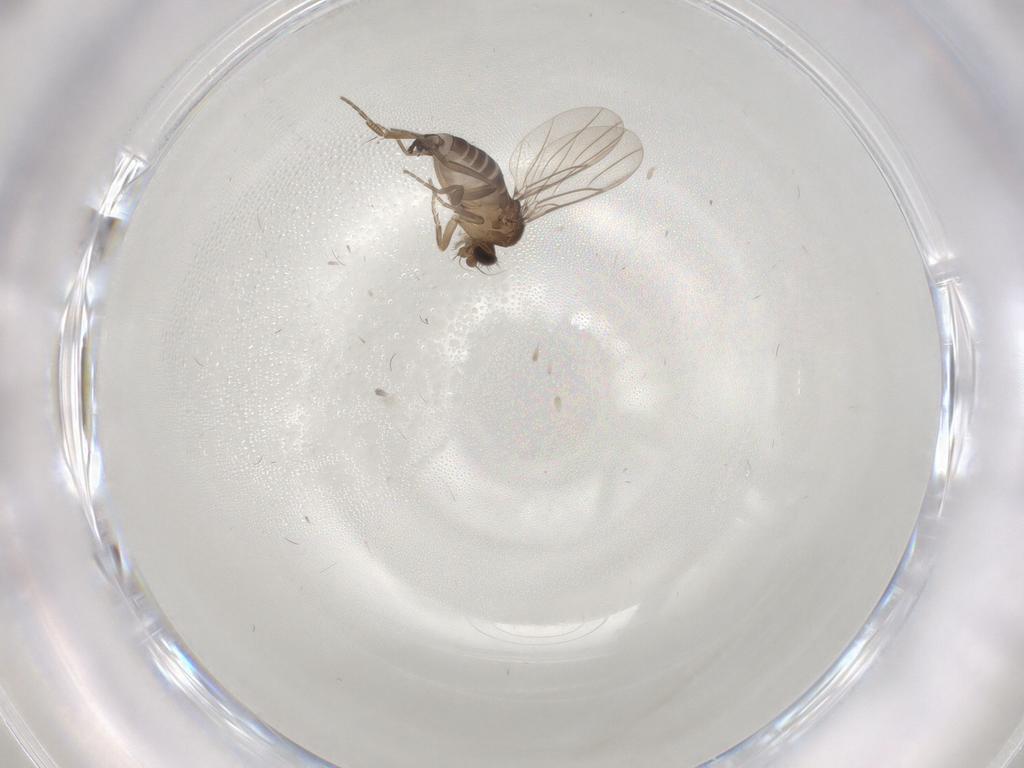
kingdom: Animalia
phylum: Arthropoda
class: Insecta
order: Diptera
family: Phoridae
